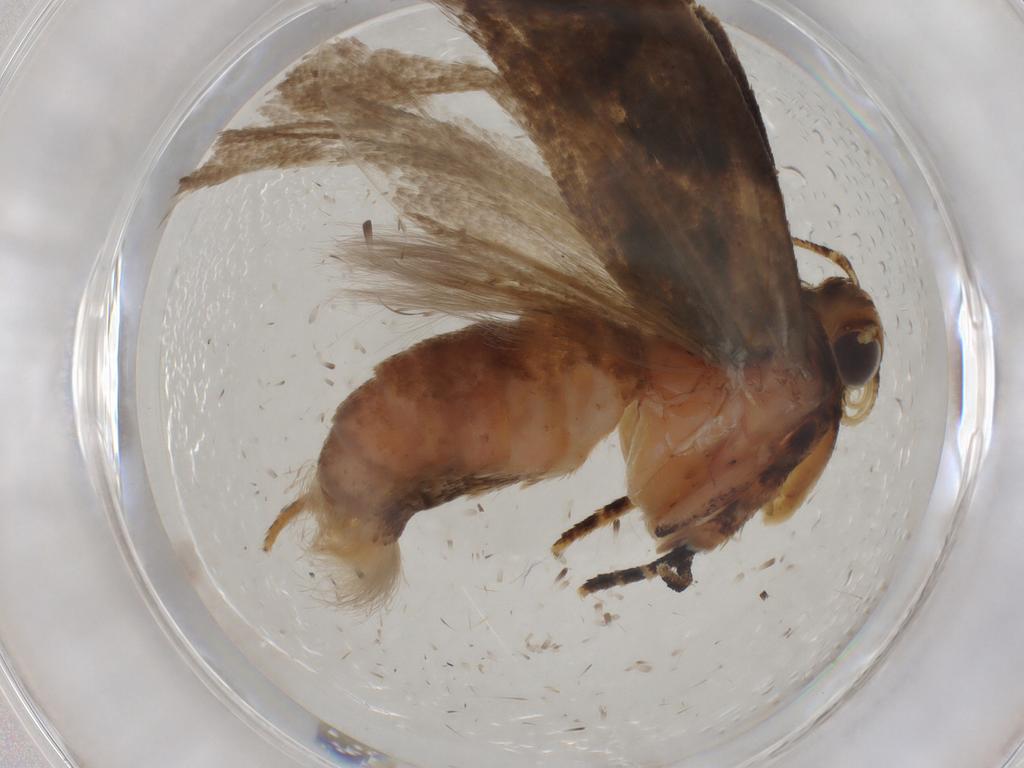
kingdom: Animalia
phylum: Arthropoda
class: Insecta
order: Lepidoptera
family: Gelechiidae
